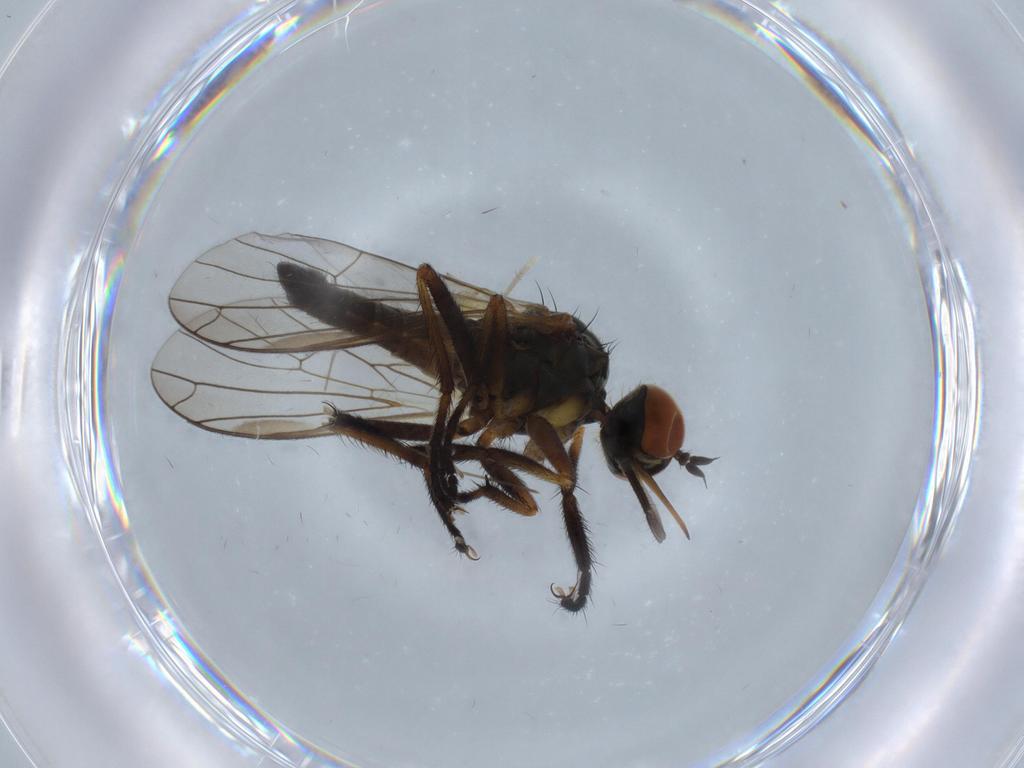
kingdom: Animalia
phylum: Arthropoda
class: Insecta
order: Diptera
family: Empididae
